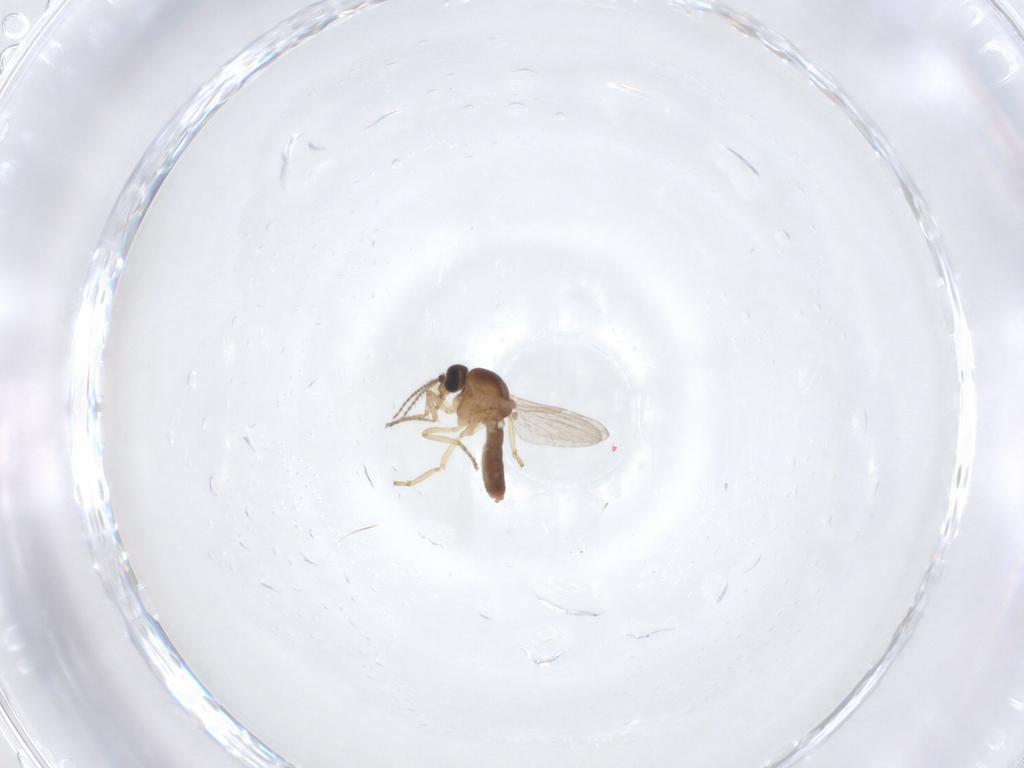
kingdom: Animalia
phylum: Arthropoda
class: Insecta
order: Diptera
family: Ceratopogonidae
